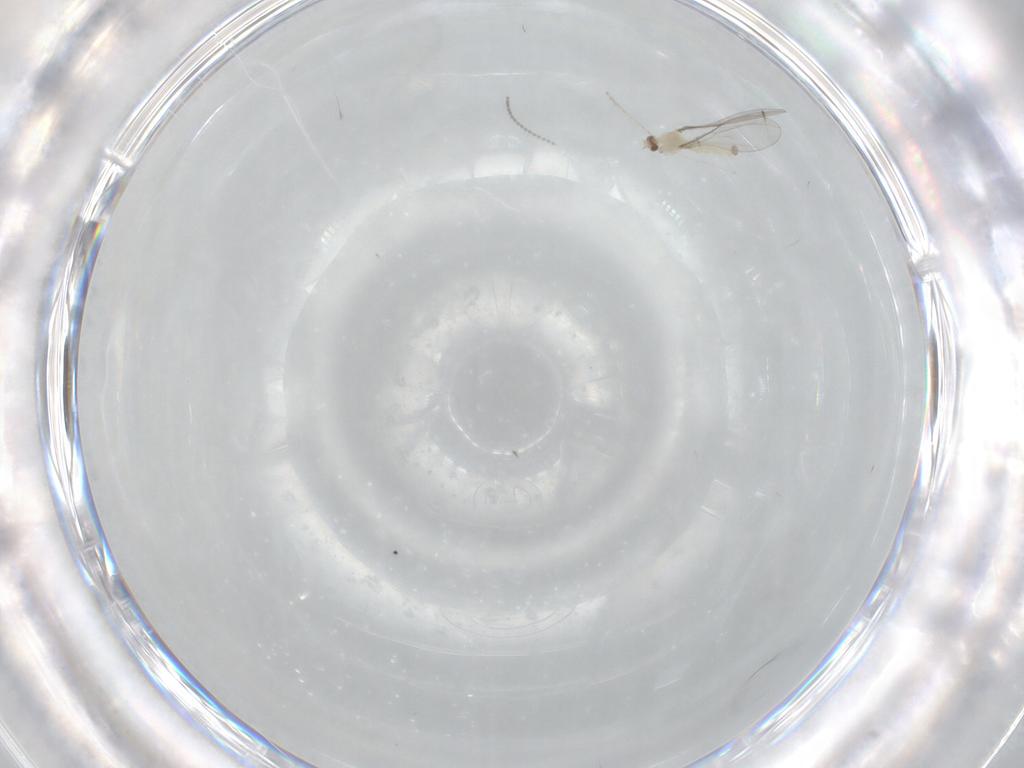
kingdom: Animalia
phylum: Arthropoda
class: Insecta
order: Diptera
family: Cecidomyiidae
